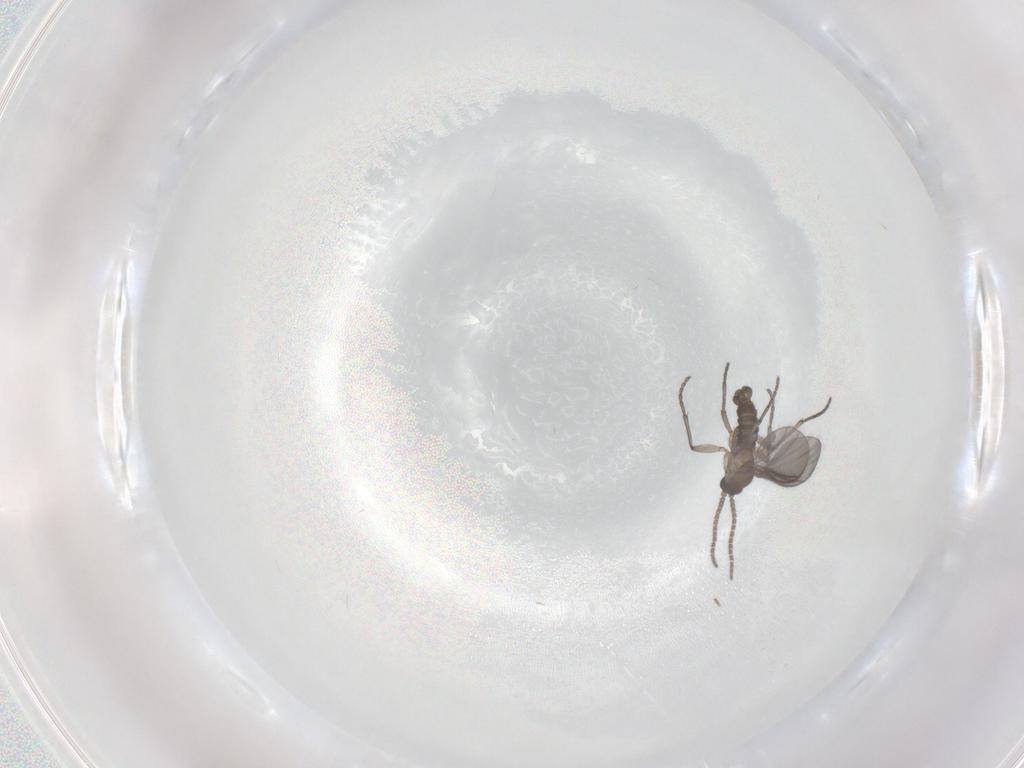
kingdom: Animalia
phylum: Arthropoda
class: Insecta
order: Diptera
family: Sciaridae
